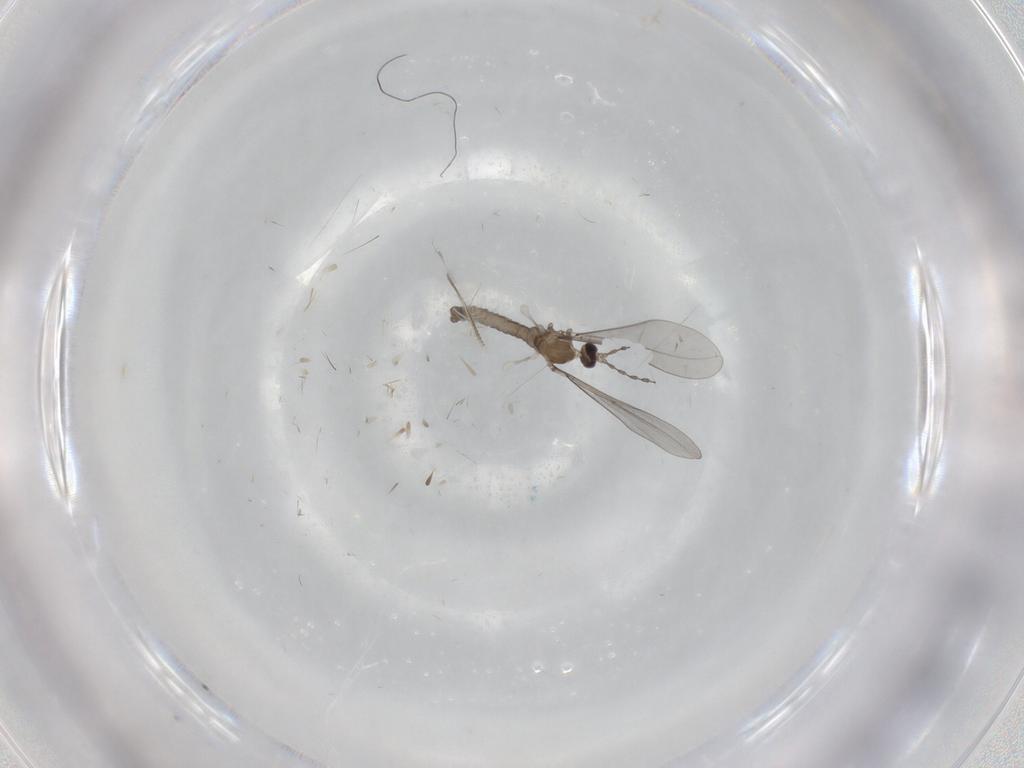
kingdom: Animalia
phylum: Arthropoda
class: Insecta
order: Diptera
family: Cecidomyiidae
